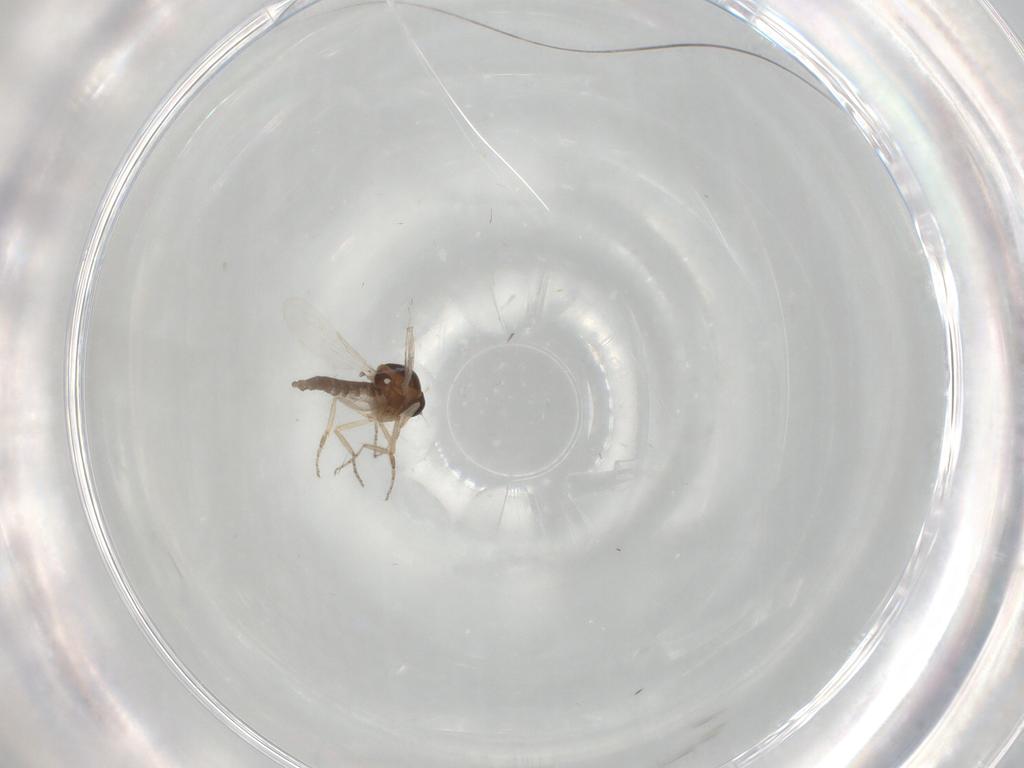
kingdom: Animalia
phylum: Arthropoda
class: Insecta
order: Diptera
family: Ceratopogonidae
